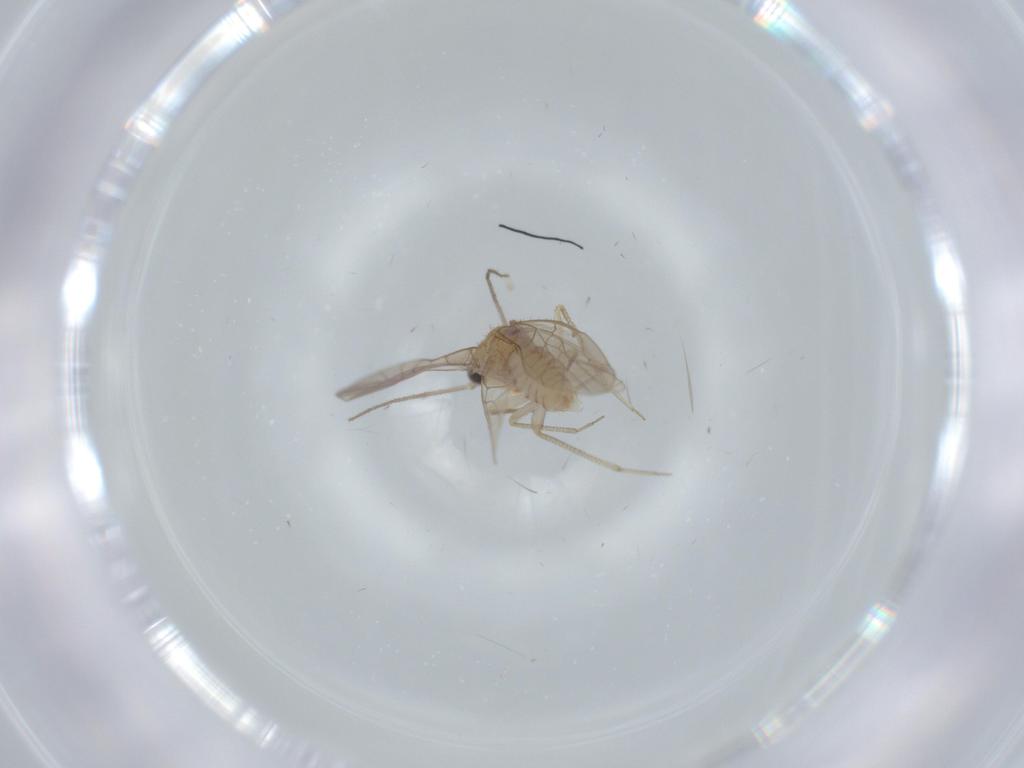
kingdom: Animalia
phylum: Arthropoda
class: Insecta
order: Psocodea
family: Caeciliusidae
